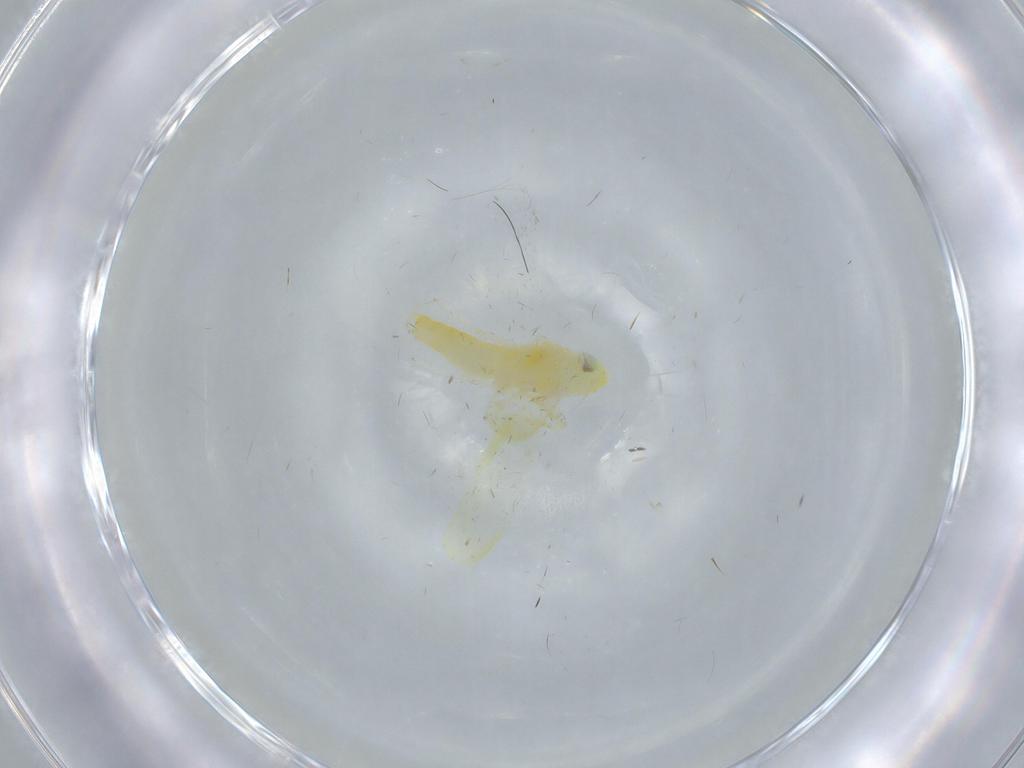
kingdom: Animalia
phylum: Arthropoda
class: Insecta
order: Hemiptera
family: Cicadellidae
